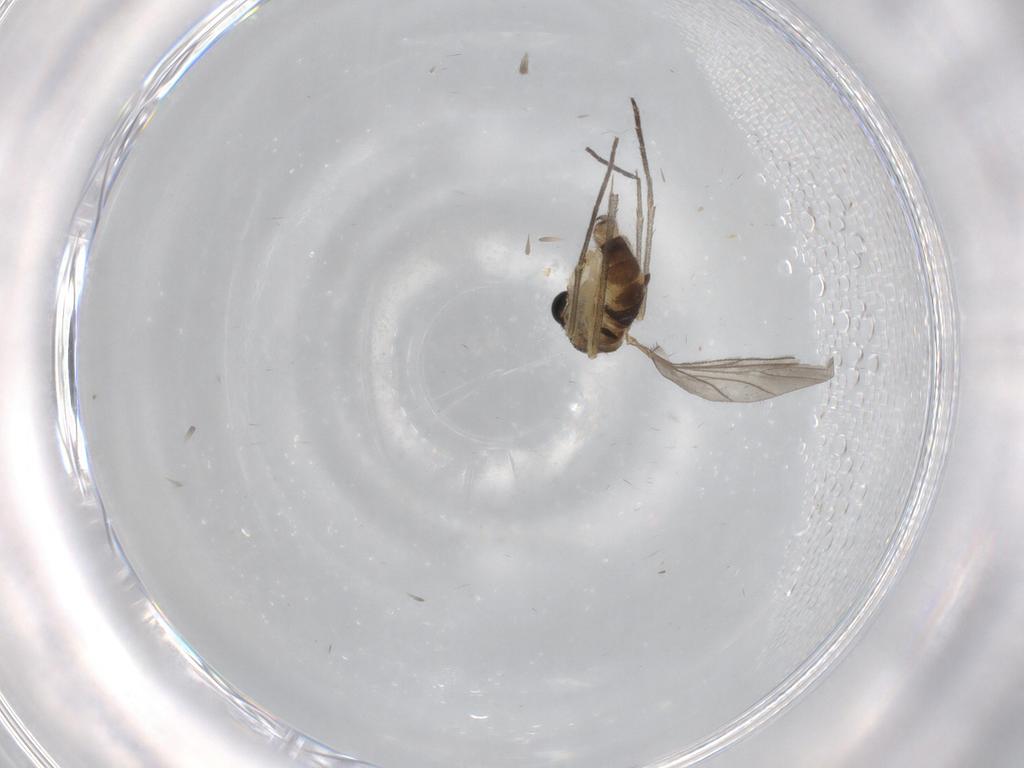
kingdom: Animalia
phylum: Arthropoda
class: Insecta
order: Diptera
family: Sciaridae
